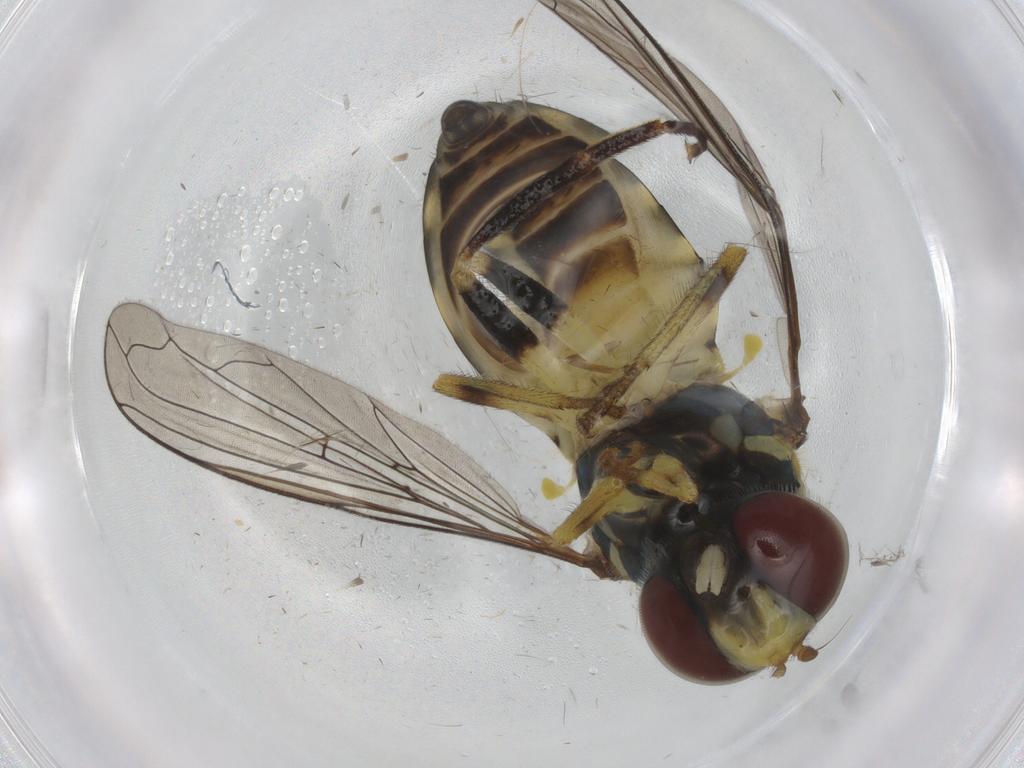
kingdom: Animalia
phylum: Arthropoda
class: Insecta
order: Diptera
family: Syrphidae
